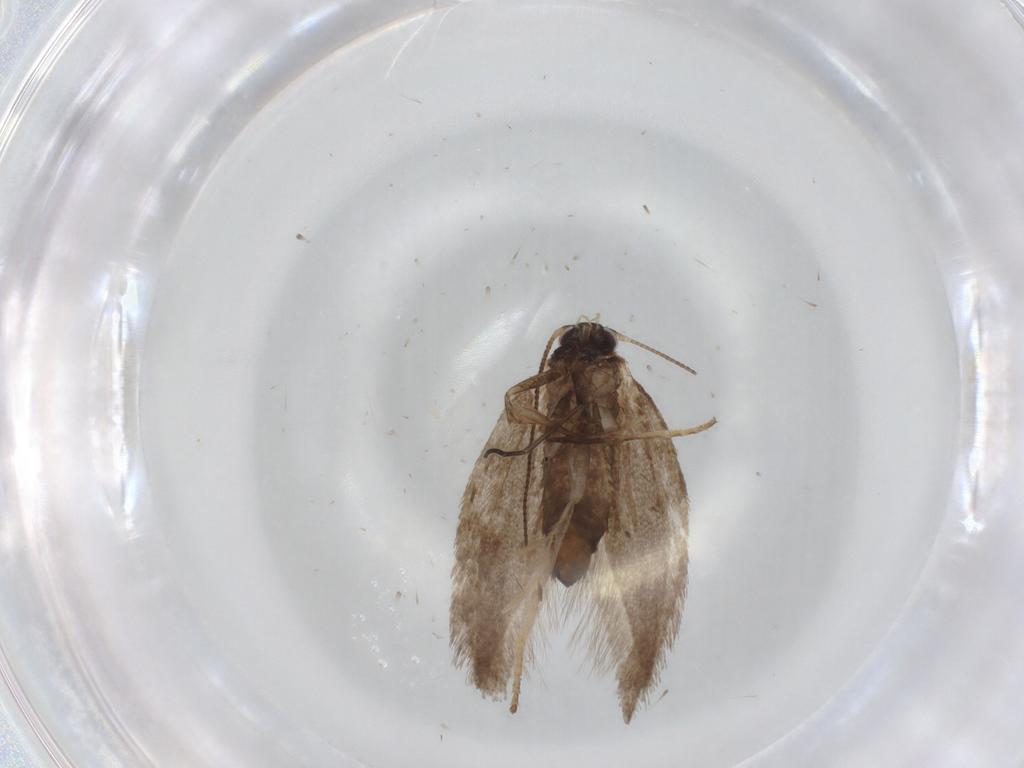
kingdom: Animalia
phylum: Arthropoda
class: Insecta
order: Lepidoptera
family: Nepticulidae
